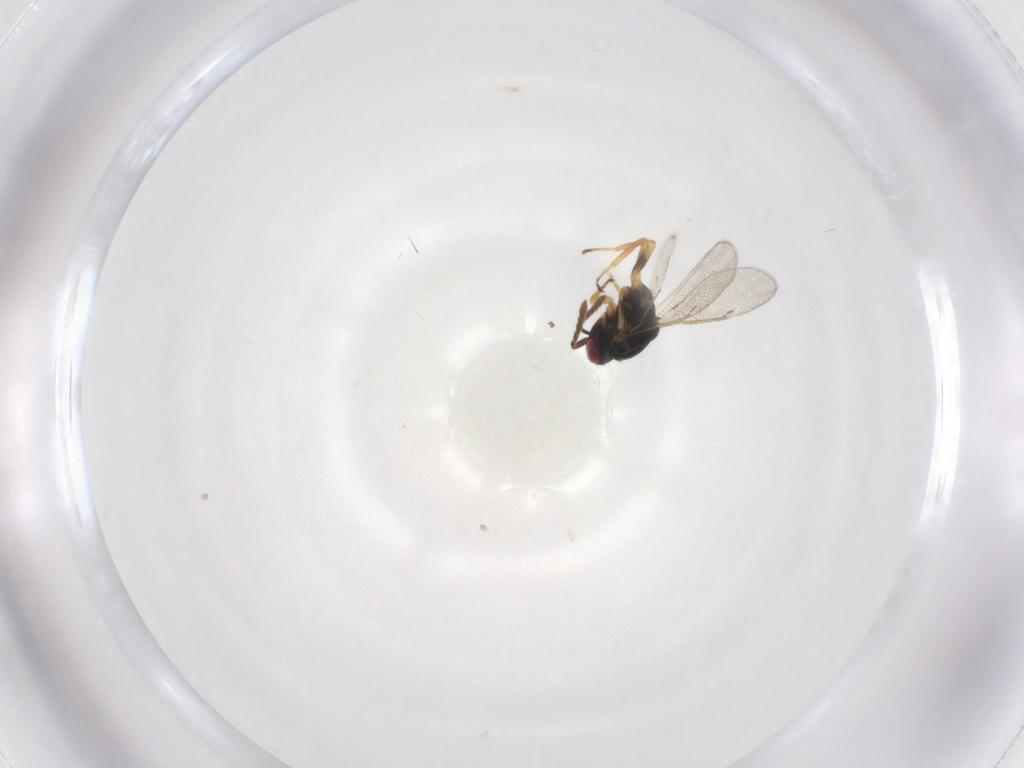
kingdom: Animalia
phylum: Arthropoda
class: Insecta
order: Hymenoptera
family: Eulophidae
